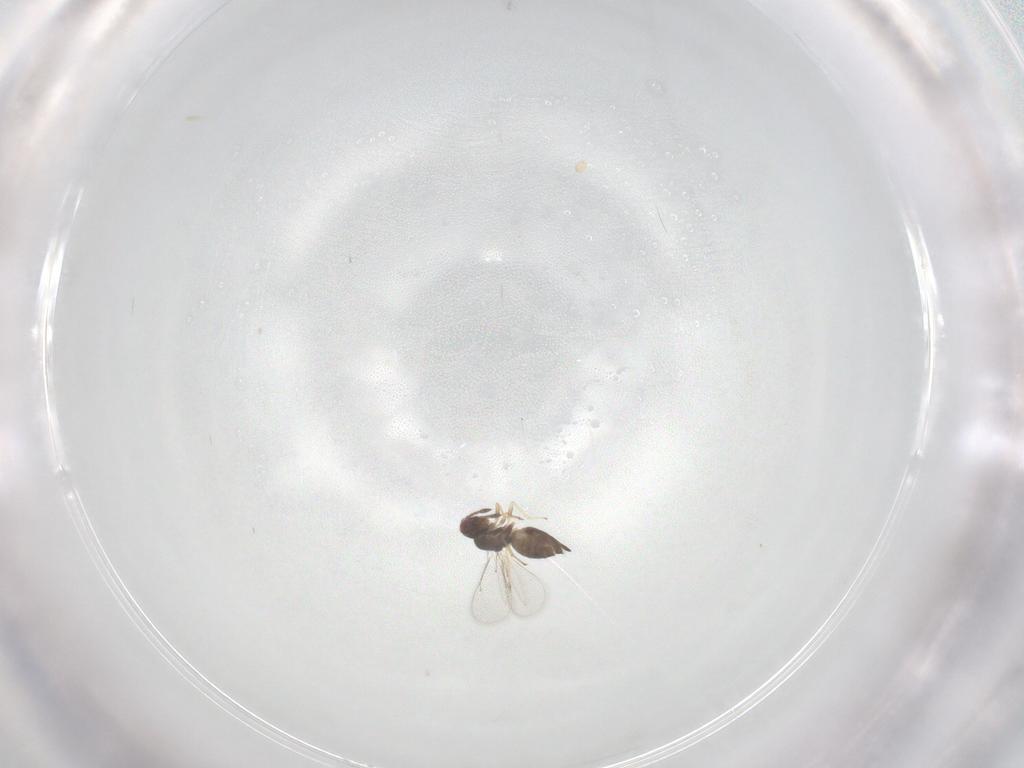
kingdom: Animalia
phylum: Arthropoda
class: Insecta
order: Hymenoptera
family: Eulophidae
